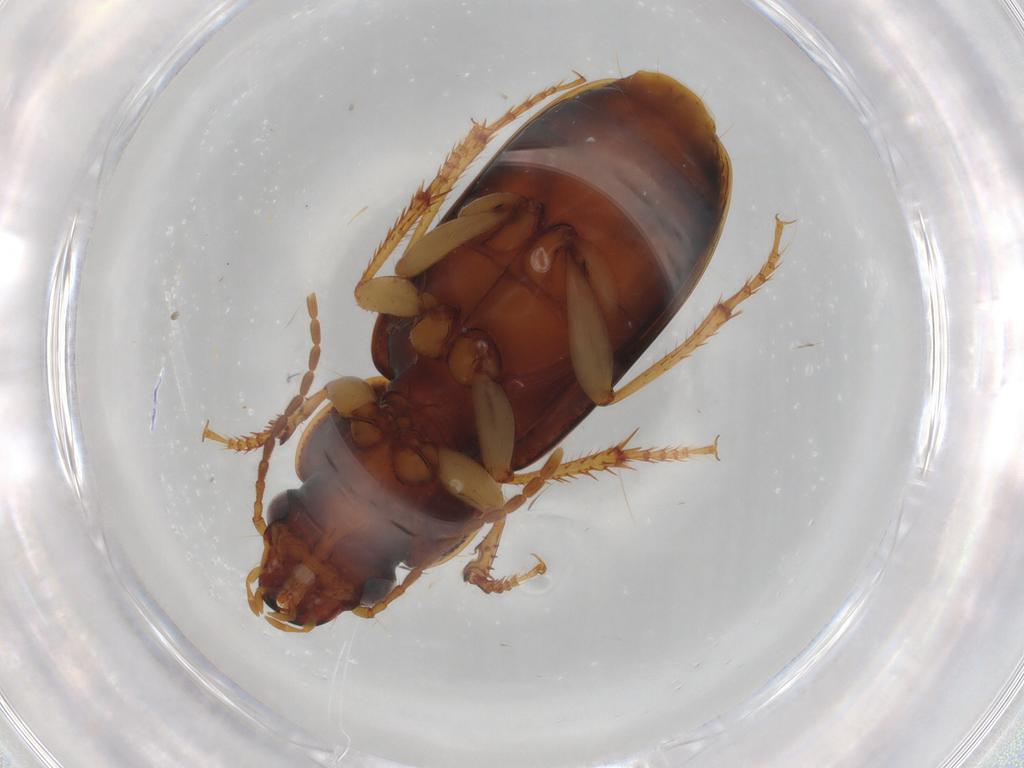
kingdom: Animalia
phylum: Arthropoda
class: Insecta
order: Coleoptera
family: Carabidae
